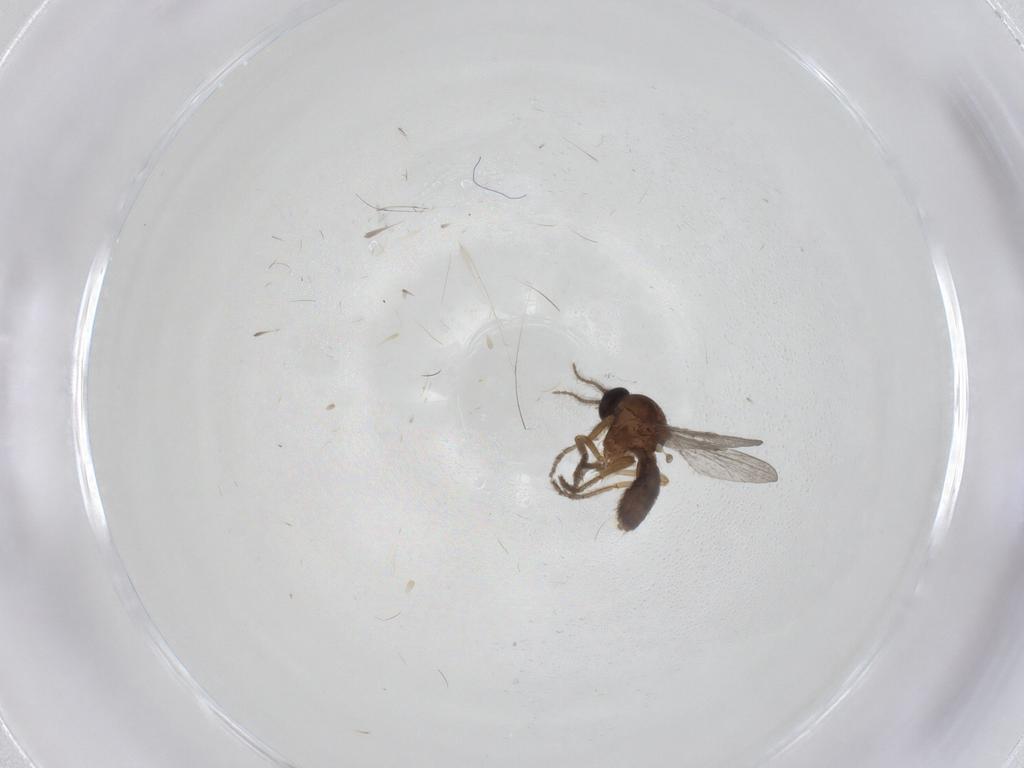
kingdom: Animalia
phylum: Arthropoda
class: Insecta
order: Diptera
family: Ceratopogonidae
